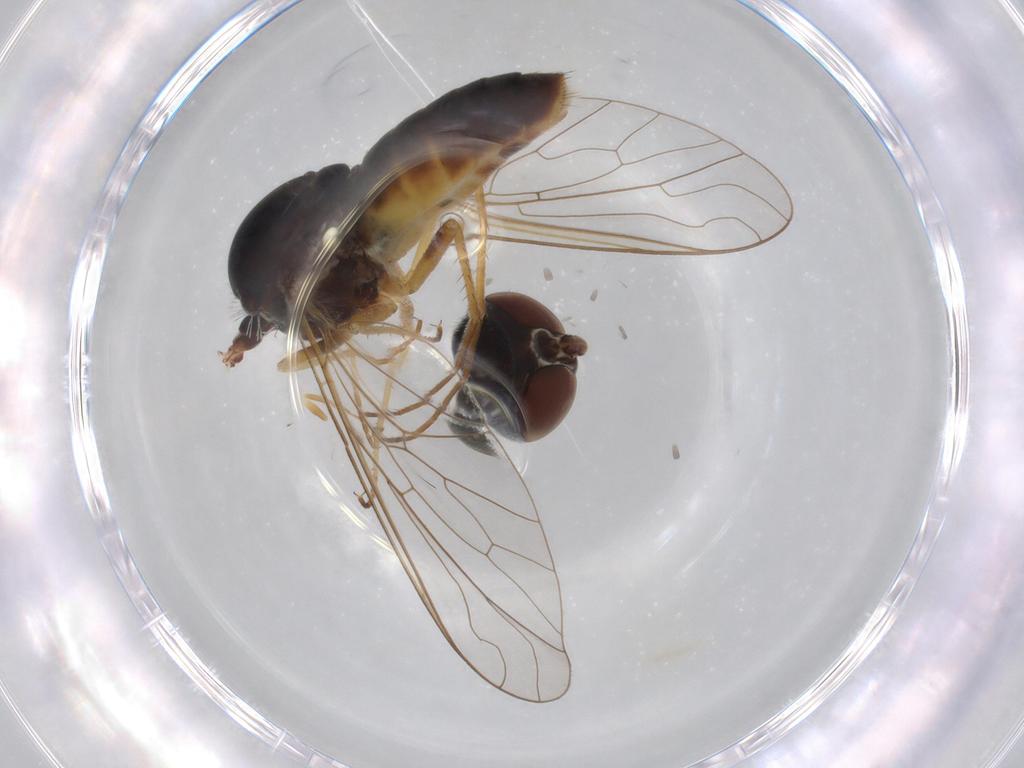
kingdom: Animalia
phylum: Arthropoda
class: Insecta
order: Diptera
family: Bombyliidae
